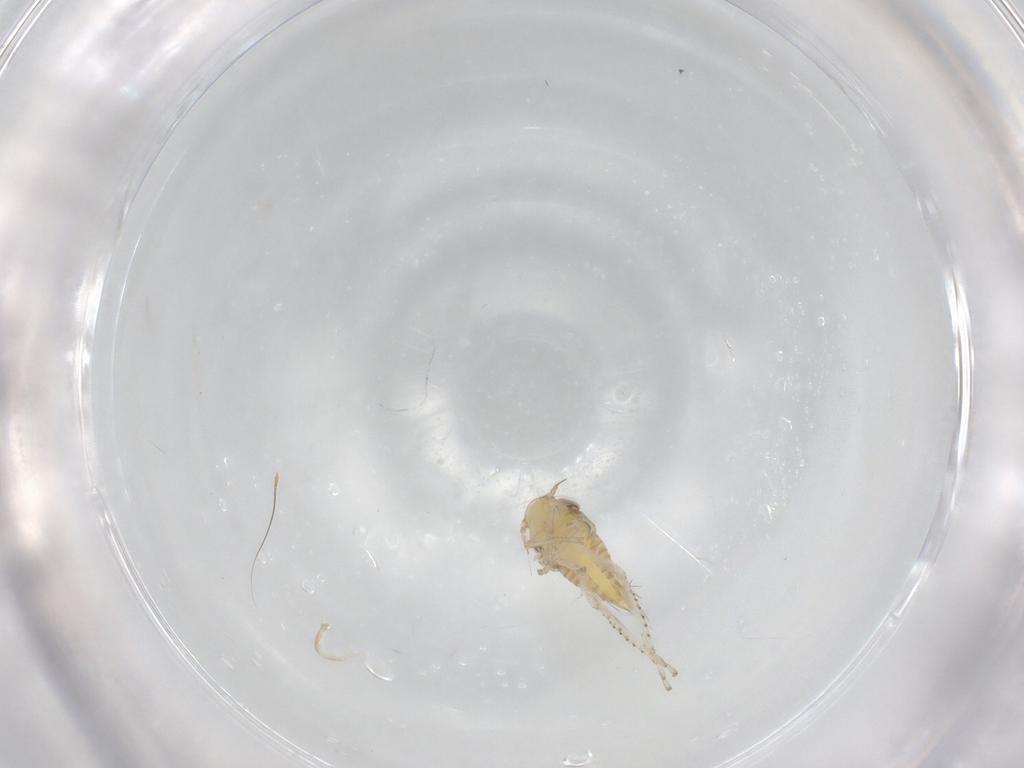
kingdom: Animalia
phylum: Arthropoda
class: Insecta
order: Hemiptera
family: Cicadellidae
